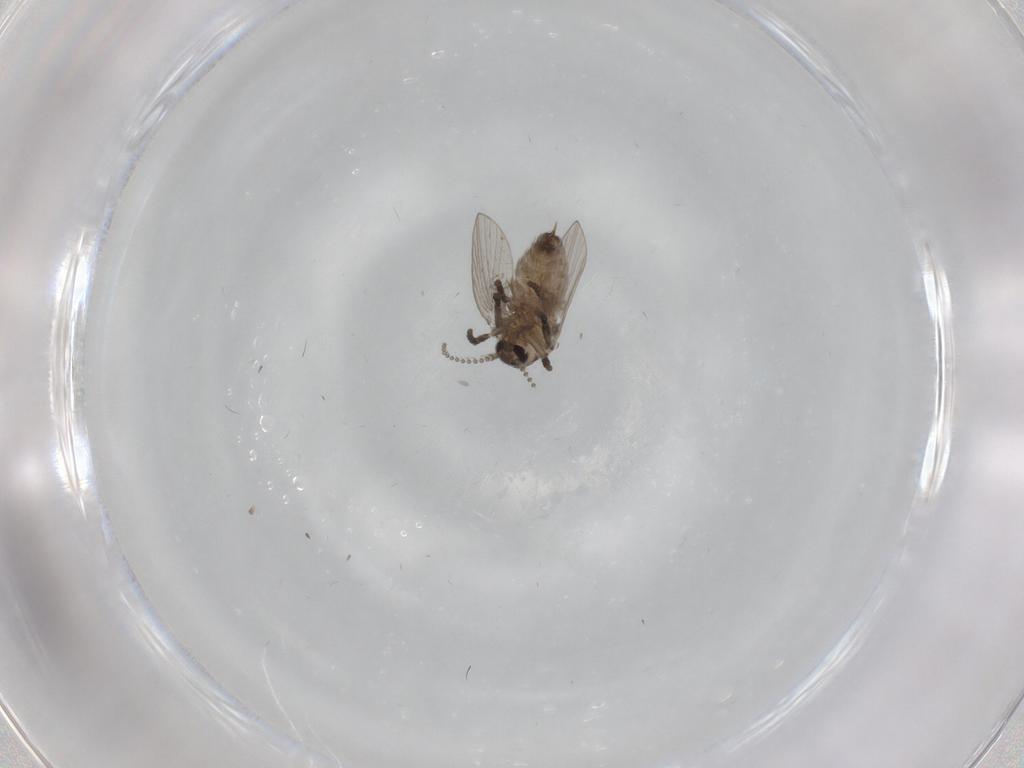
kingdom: Animalia
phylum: Arthropoda
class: Insecta
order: Diptera
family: Psychodidae
